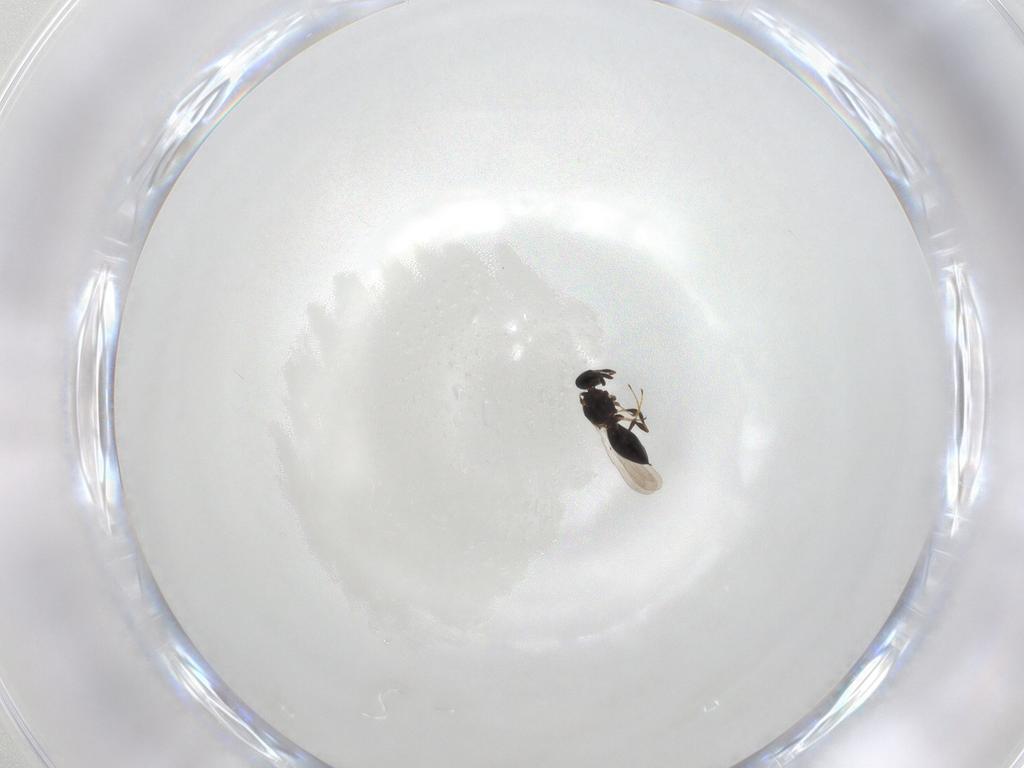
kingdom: Animalia
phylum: Arthropoda
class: Insecta
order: Hymenoptera
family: Platygastridae
